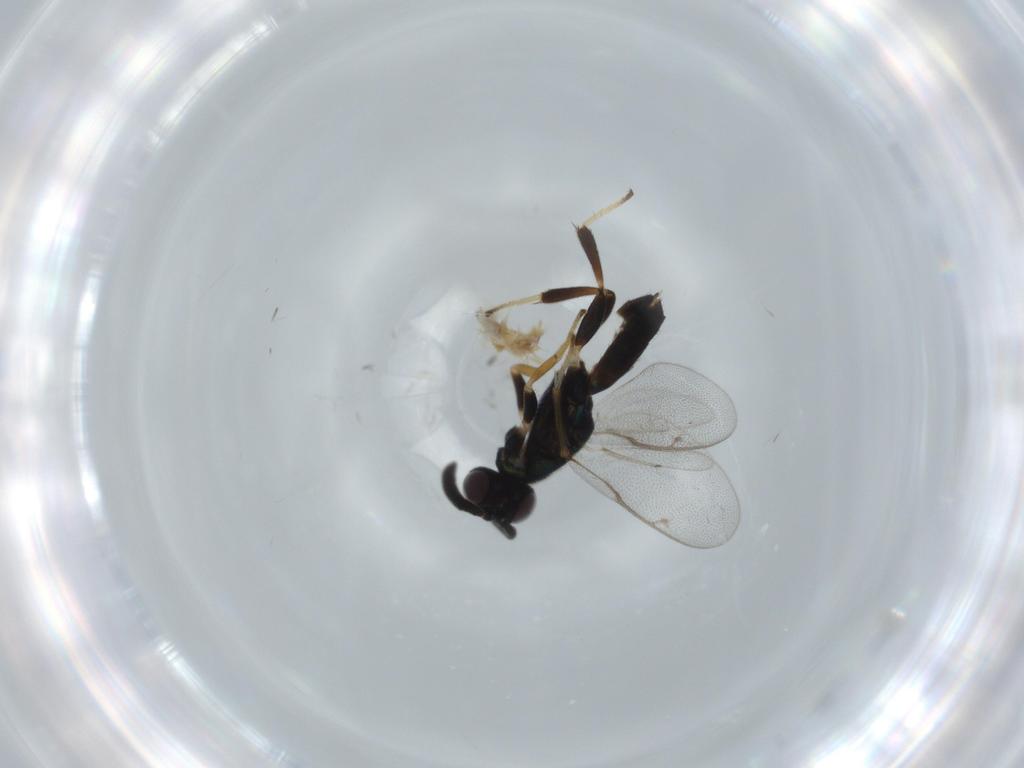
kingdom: Animalia
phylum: Arthropoda
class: Insecta
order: Hymenoptera
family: Eupelmidae
